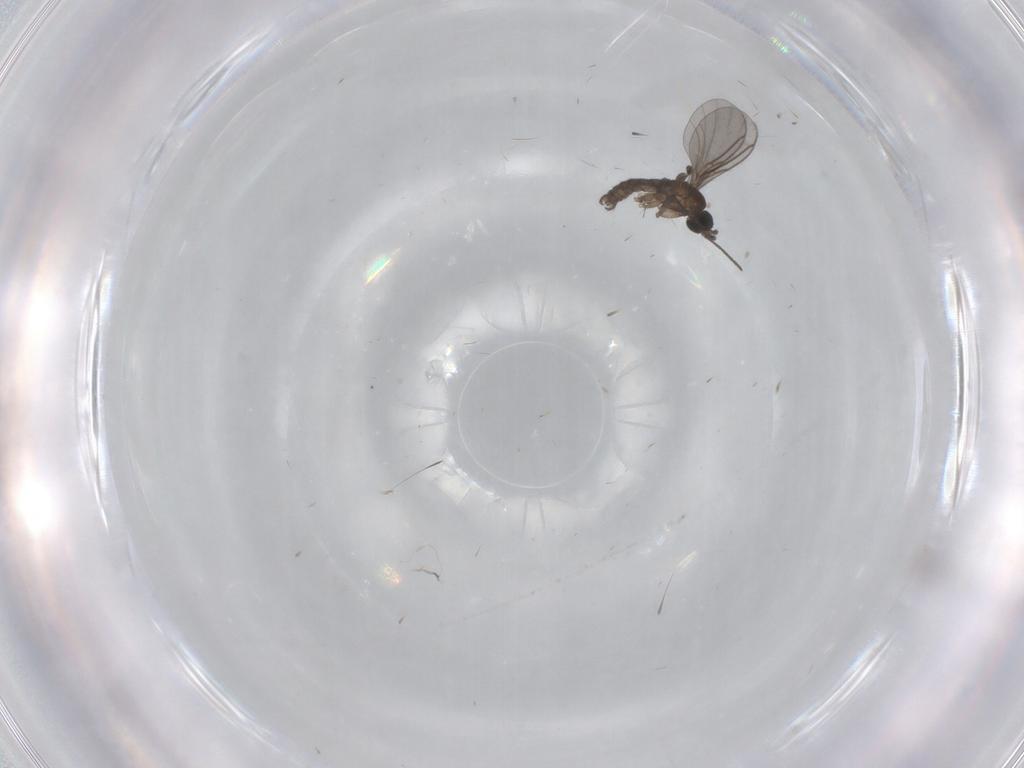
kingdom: Animalia
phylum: Arthropoda
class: Insecta
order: Diptera
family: Ceratopogonidae
